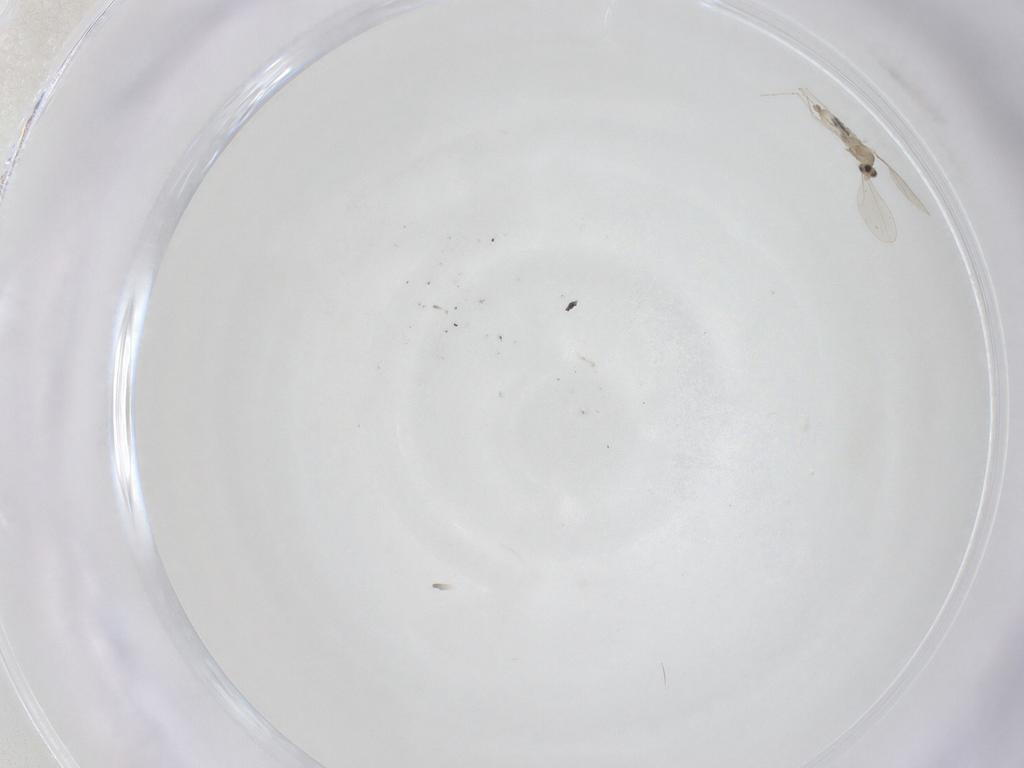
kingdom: Animalia
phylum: Arthropoda
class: Insecta
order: Diptera
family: Cecidomyiidae
